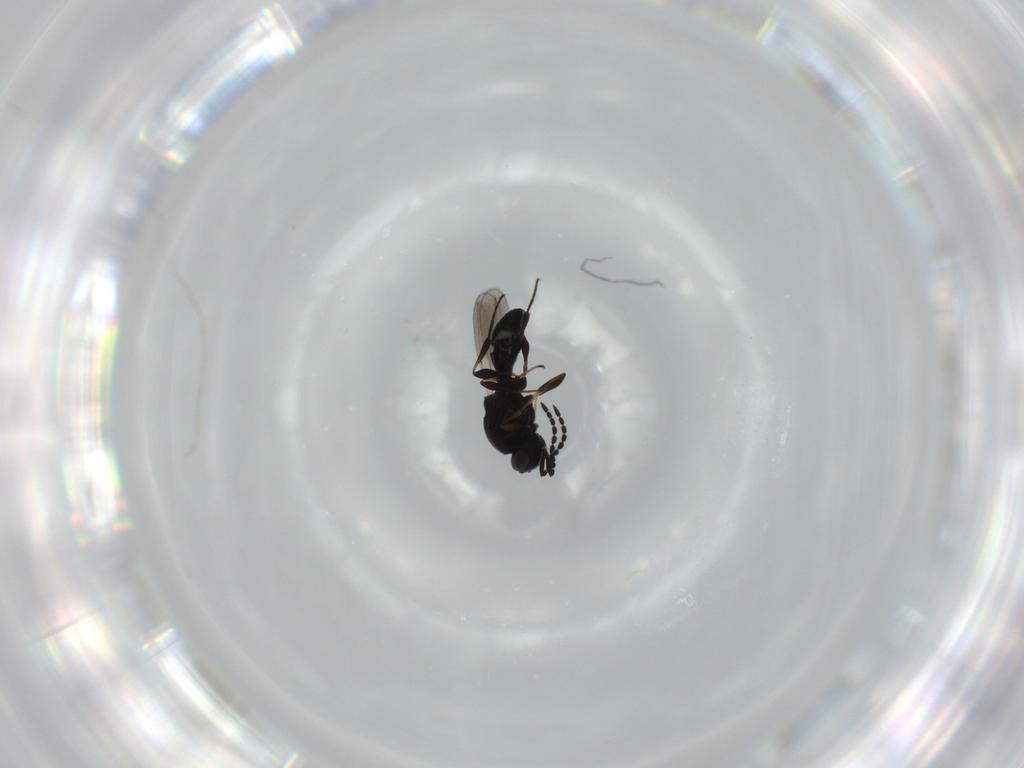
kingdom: Animalia
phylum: Arthropoda
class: Insecta
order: Hymenoptera
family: Platygastridae
